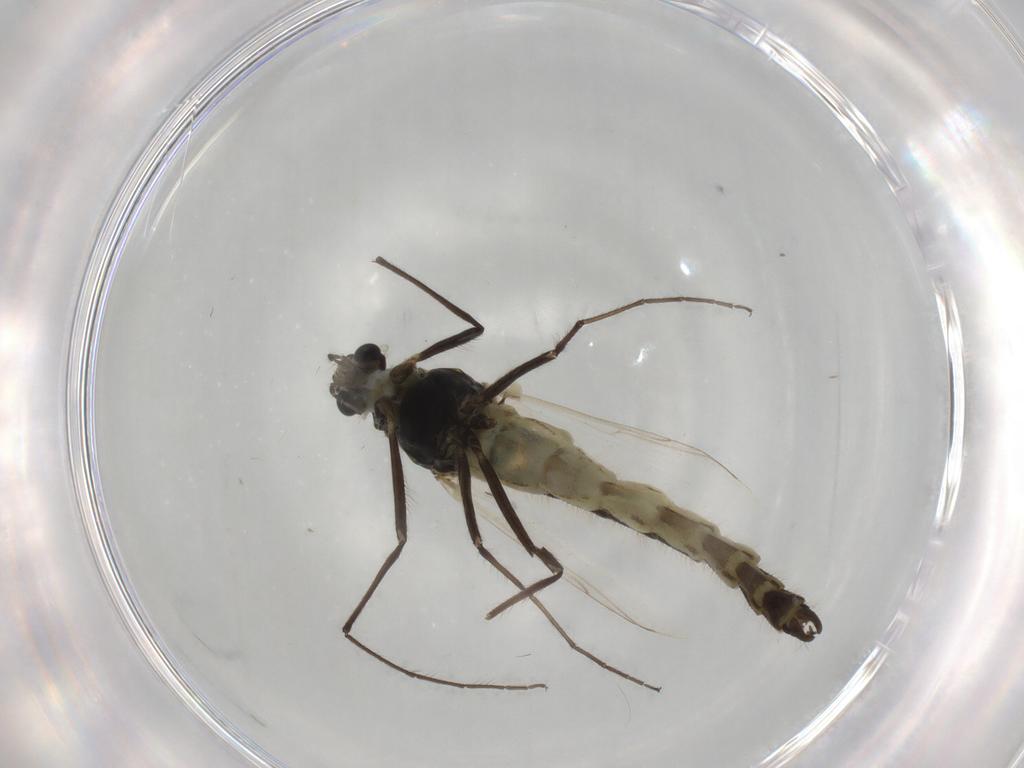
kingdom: Animalia
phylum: Arthropoda
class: Insecta
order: Diptera
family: Chironomidae
